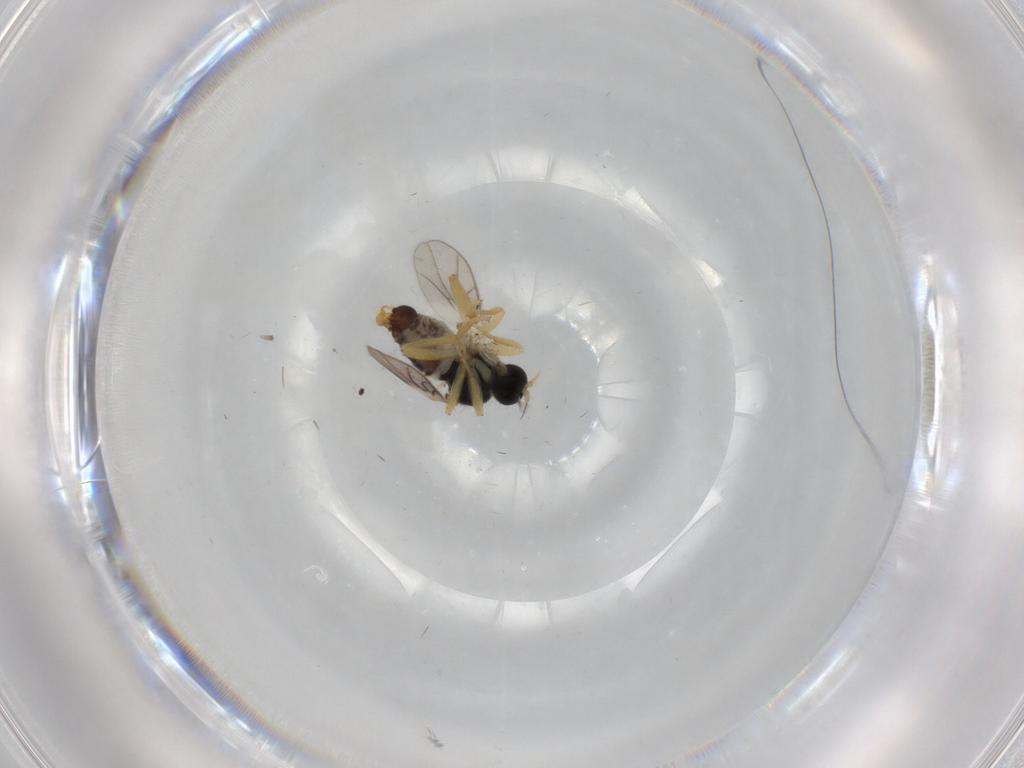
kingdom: Animalia
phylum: Arthropoda
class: Insecta
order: Diptera
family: Hybotidae
